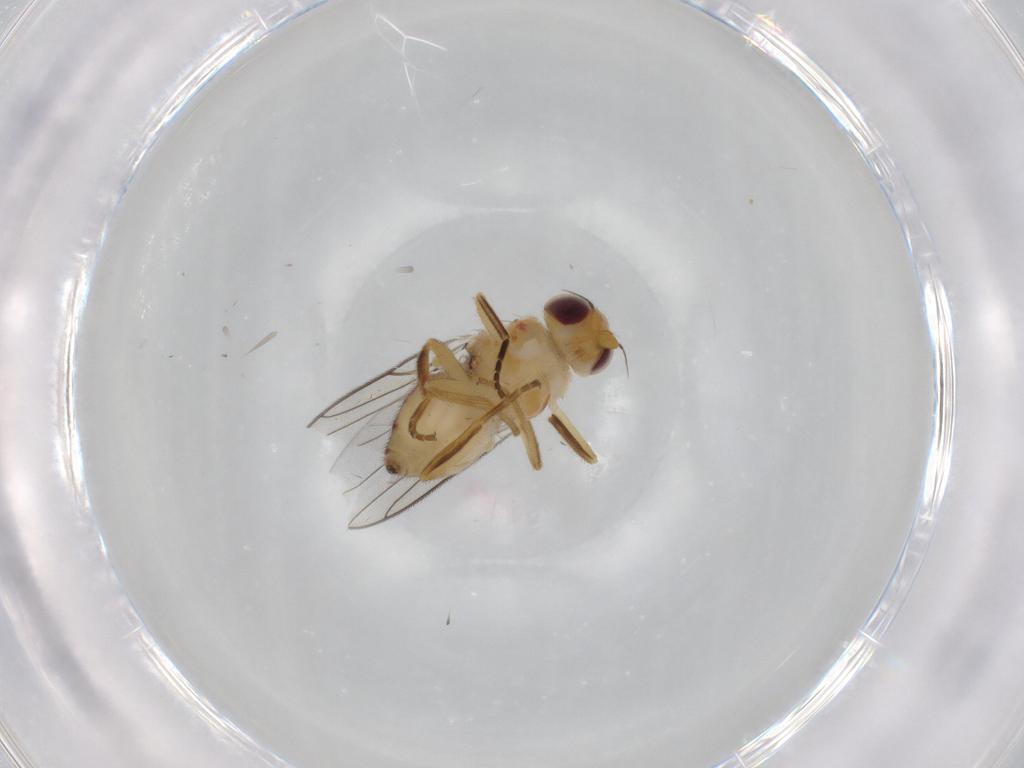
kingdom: Animalia
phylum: Arthropoda
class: Insecta
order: Diptera
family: Chloropidae
